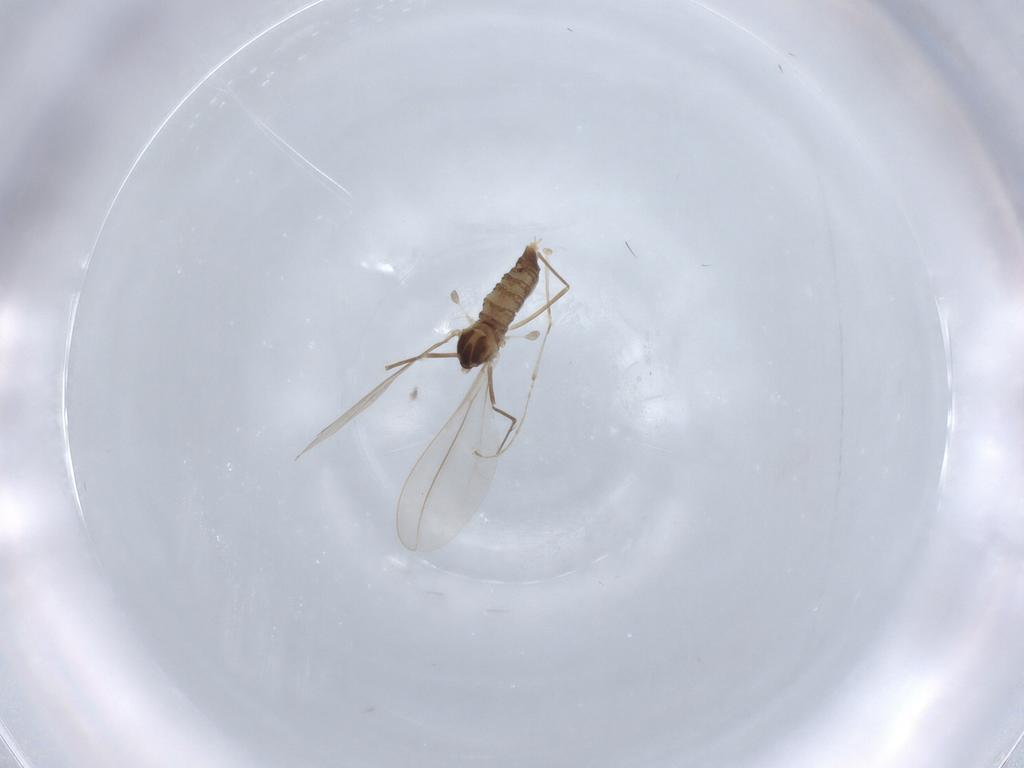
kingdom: Animalia
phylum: Arthropoda
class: Insecta
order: Diptera
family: Cecidomyiidae
